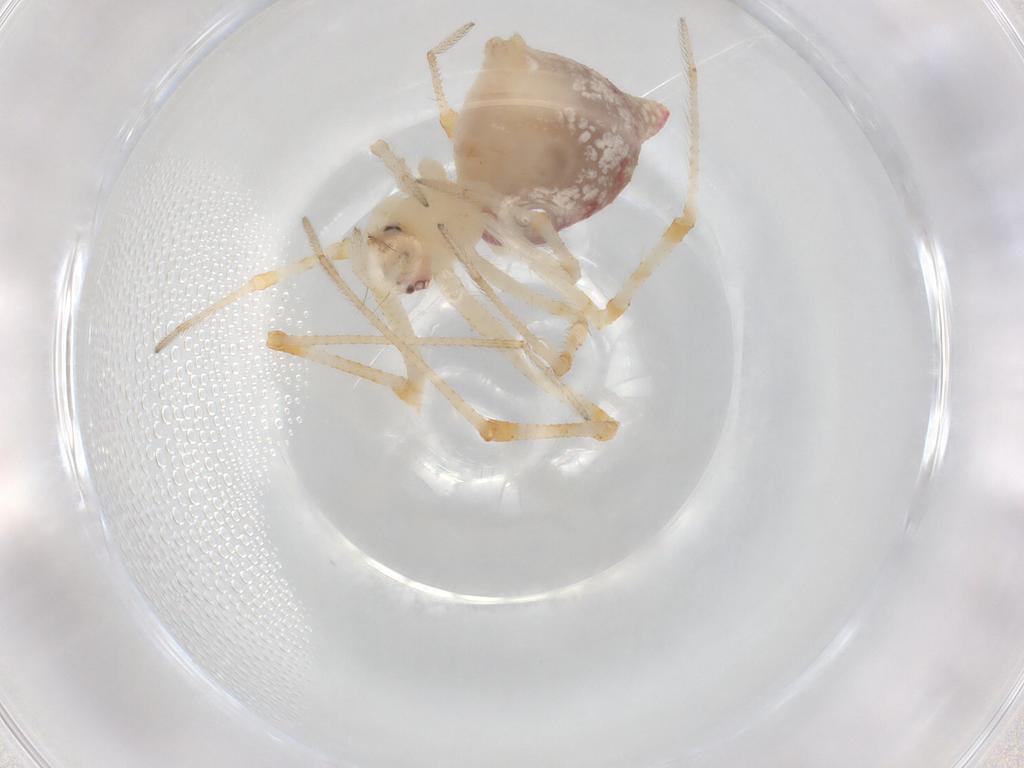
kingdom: Animalia
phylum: Arthropoda
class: Arachnida
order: Araneae
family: Theridiidae
